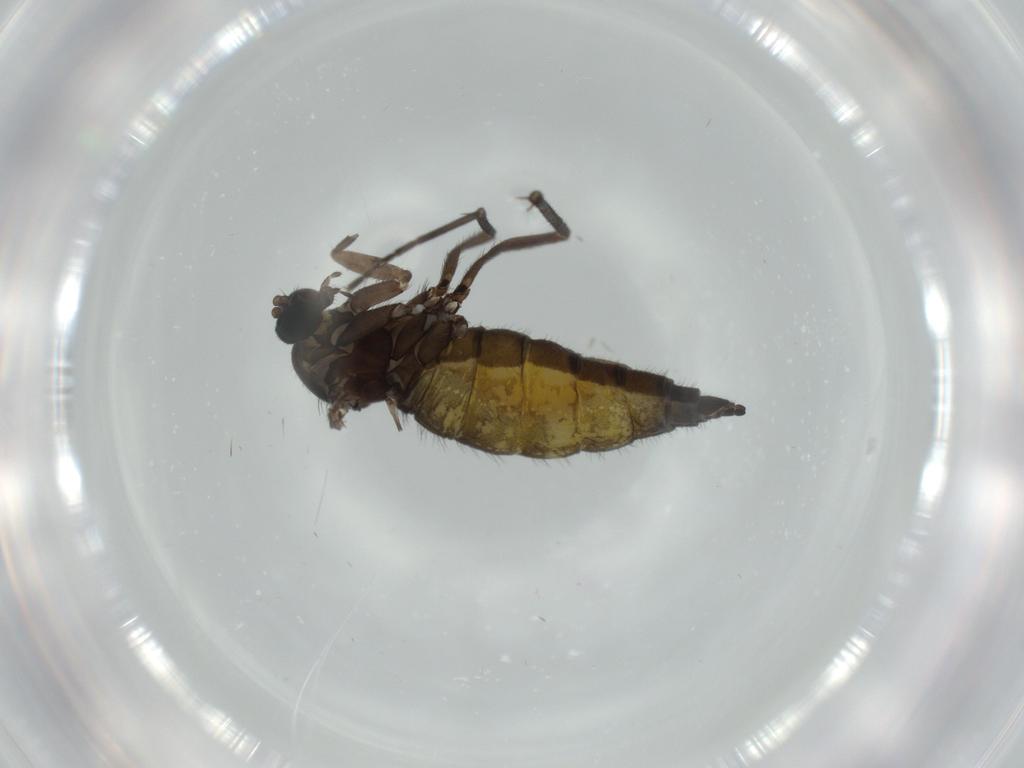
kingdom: Animalia
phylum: Arthropoda
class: Insecta
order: Diptera
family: Sciaridae
